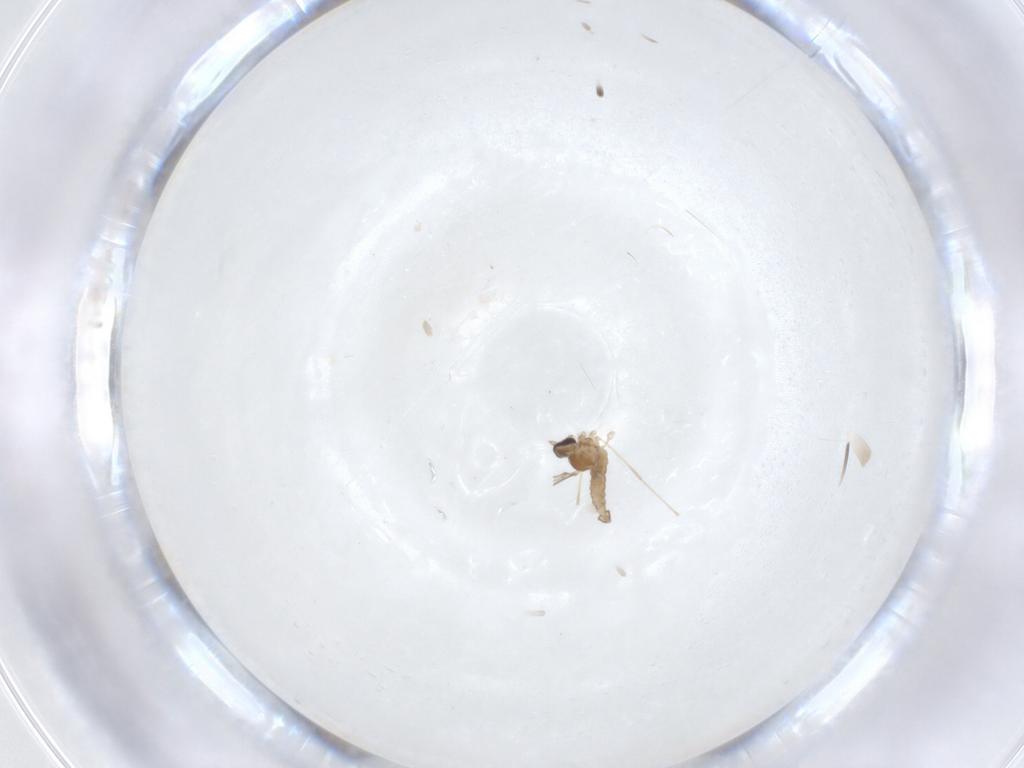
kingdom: Animalia
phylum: Arthropoda
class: Insecta
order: Diptera
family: Cecidomyiidae
